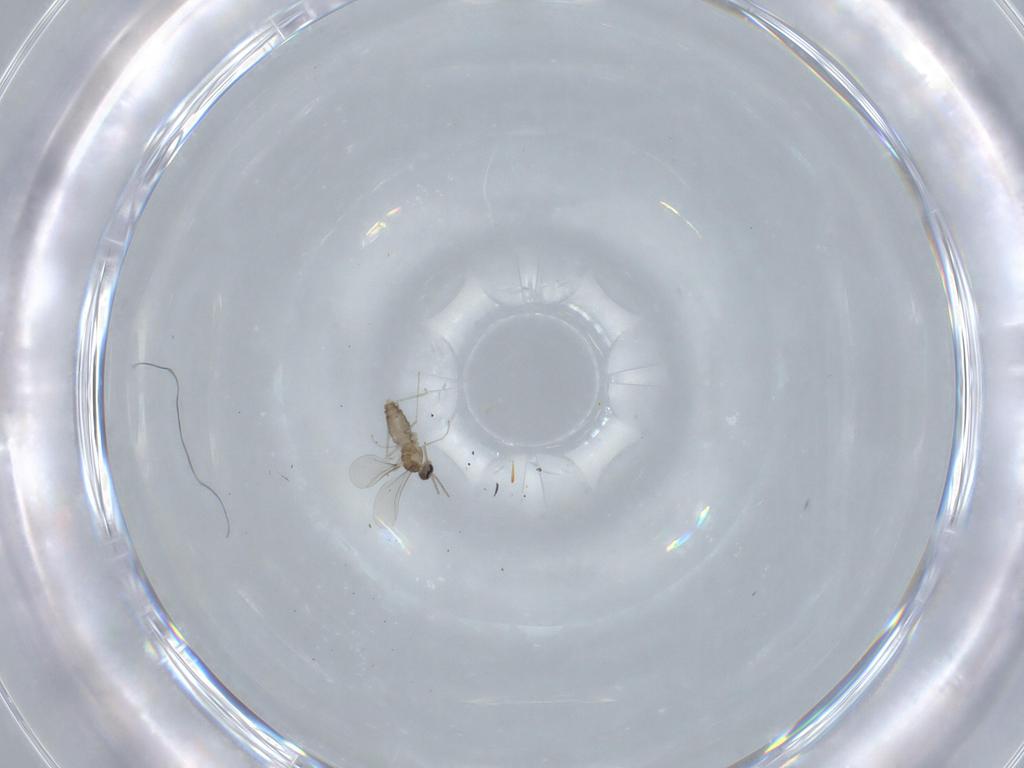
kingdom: Animalia
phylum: Arthropoda
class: Insecta
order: Diptera
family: Cecidomyiidae
